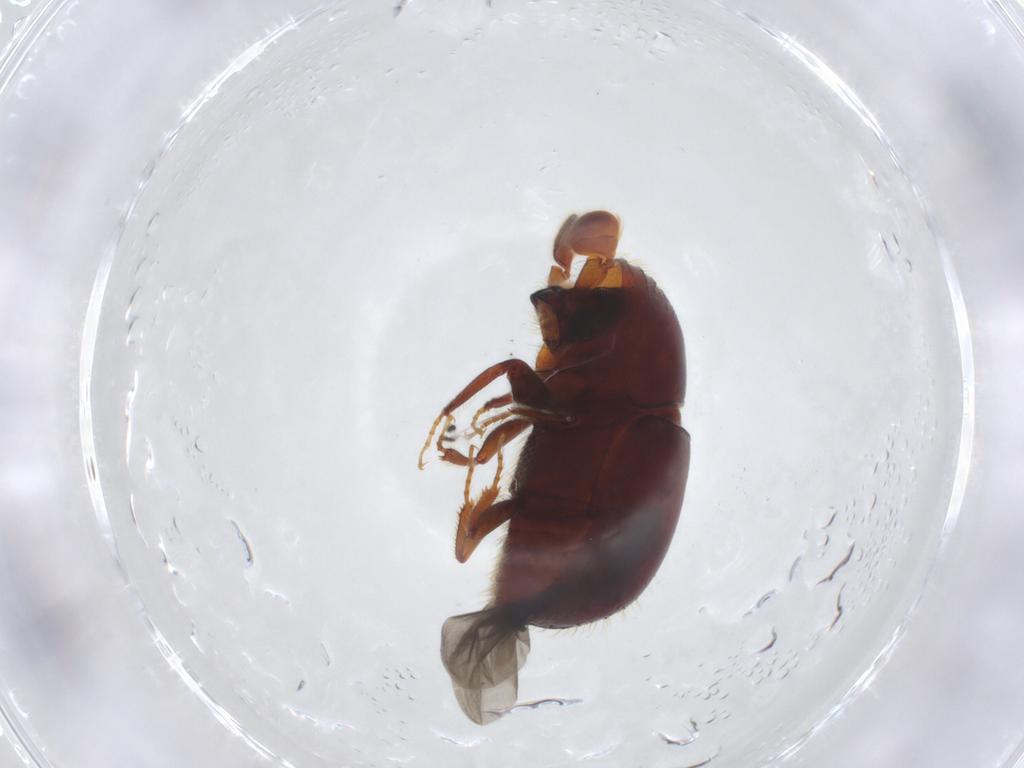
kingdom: Animalia
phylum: Arthropoda
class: Insecta
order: Coleoptera
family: Curculionidae
